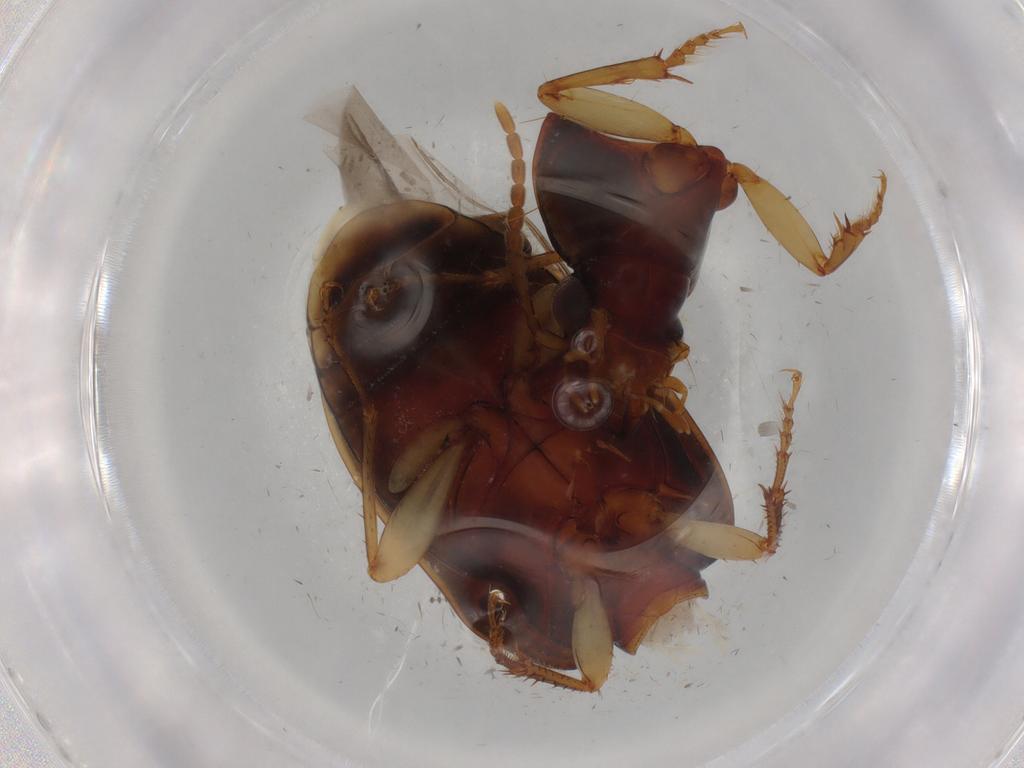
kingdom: Animalia
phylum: Arthropoda
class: Insecta
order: Coleoptera
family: Carabidae
